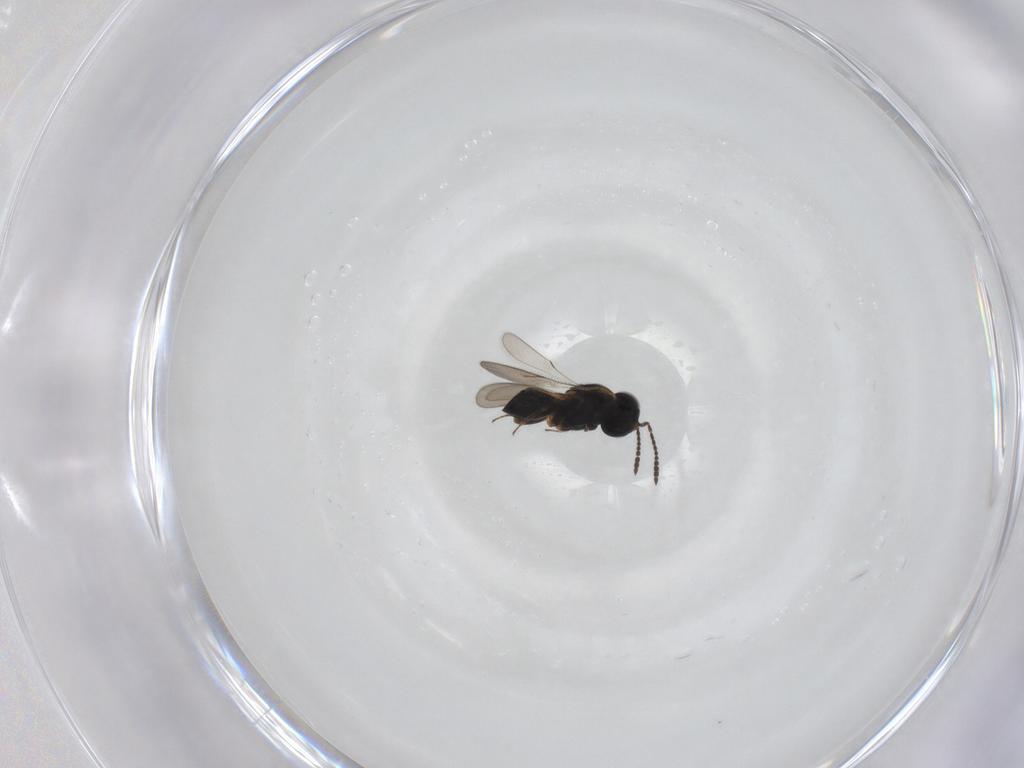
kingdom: Animalia
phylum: Arthropoda
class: Insecta
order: Hymenoptera
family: Scelionidae
